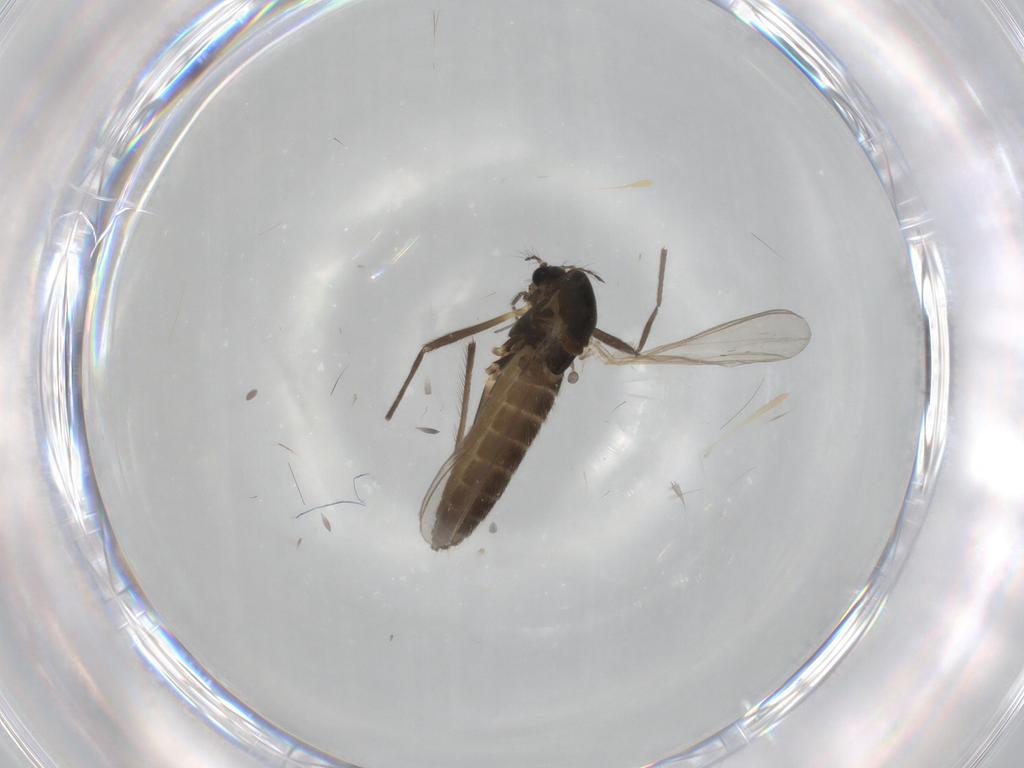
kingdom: Animalia
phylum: Arthropoda
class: Insecta
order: Diptera
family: Chironomidae
